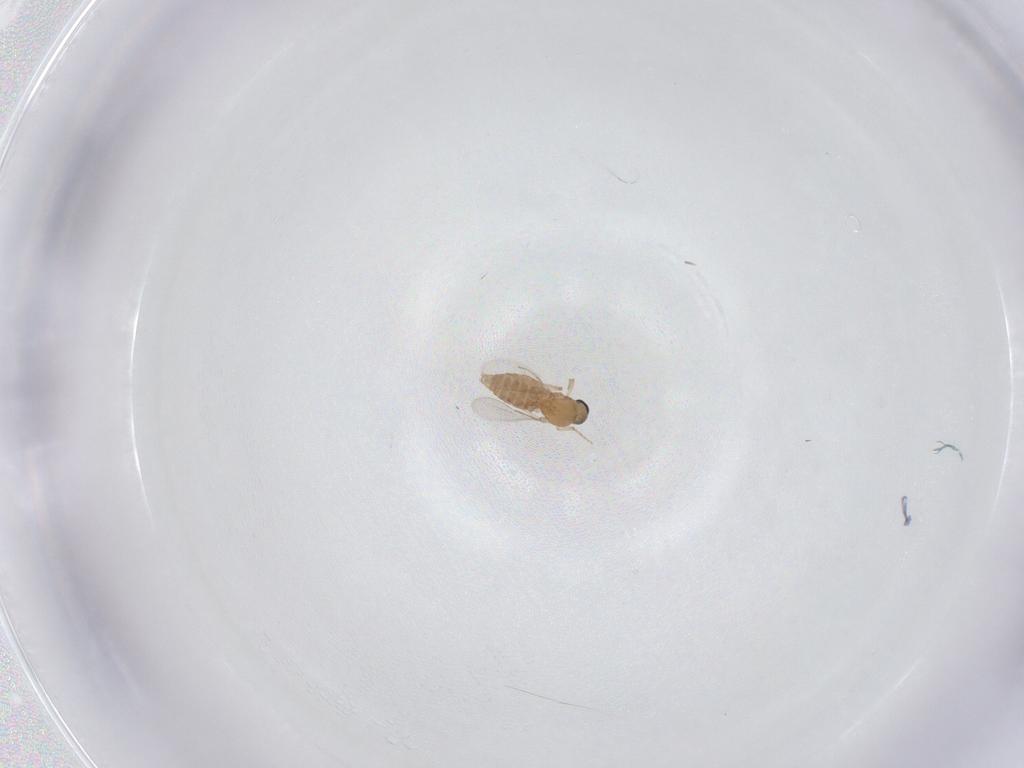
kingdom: Animalia
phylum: Arthropoda
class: Insecta
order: Diptera
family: Ceratopogonidae
